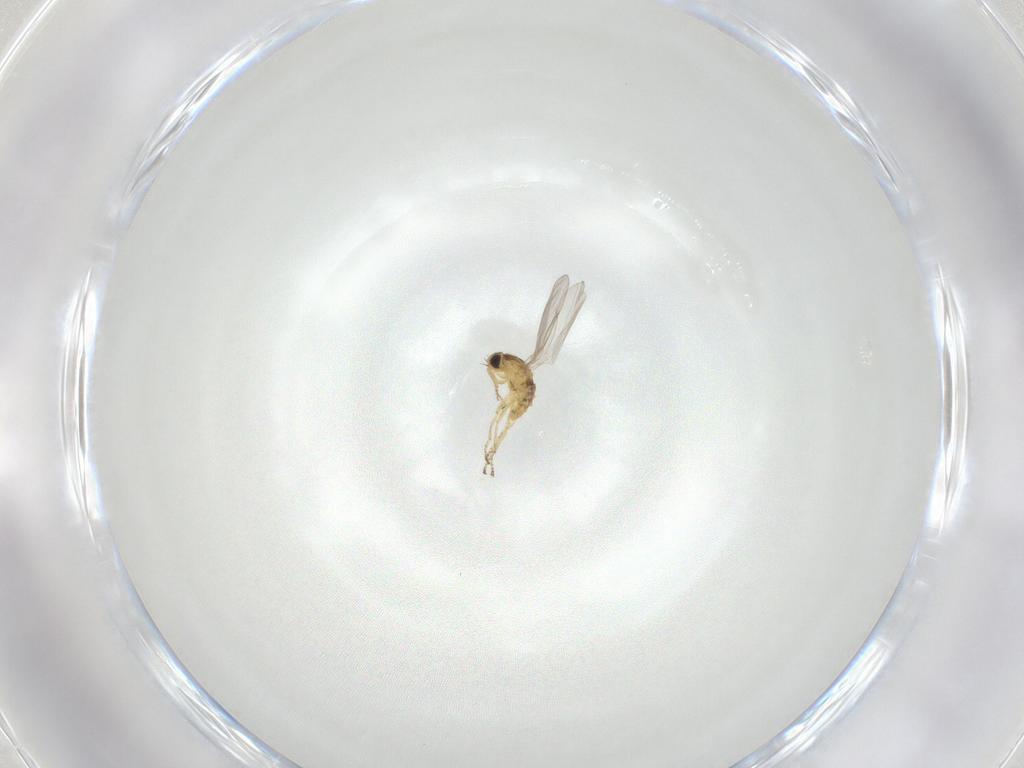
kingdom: Animalia
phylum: Arthropoda
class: Insecta
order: Diptera
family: Agromyzidae
